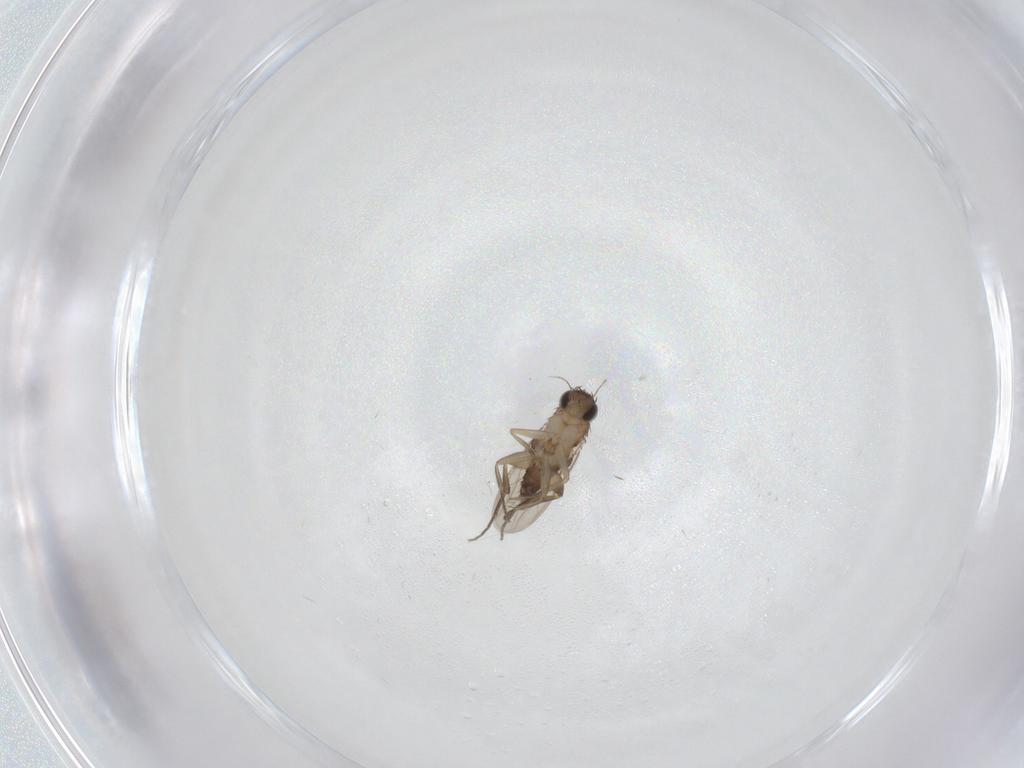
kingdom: Animalia
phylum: Arthropoda
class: Insecta
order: Diptera
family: Phoridae
